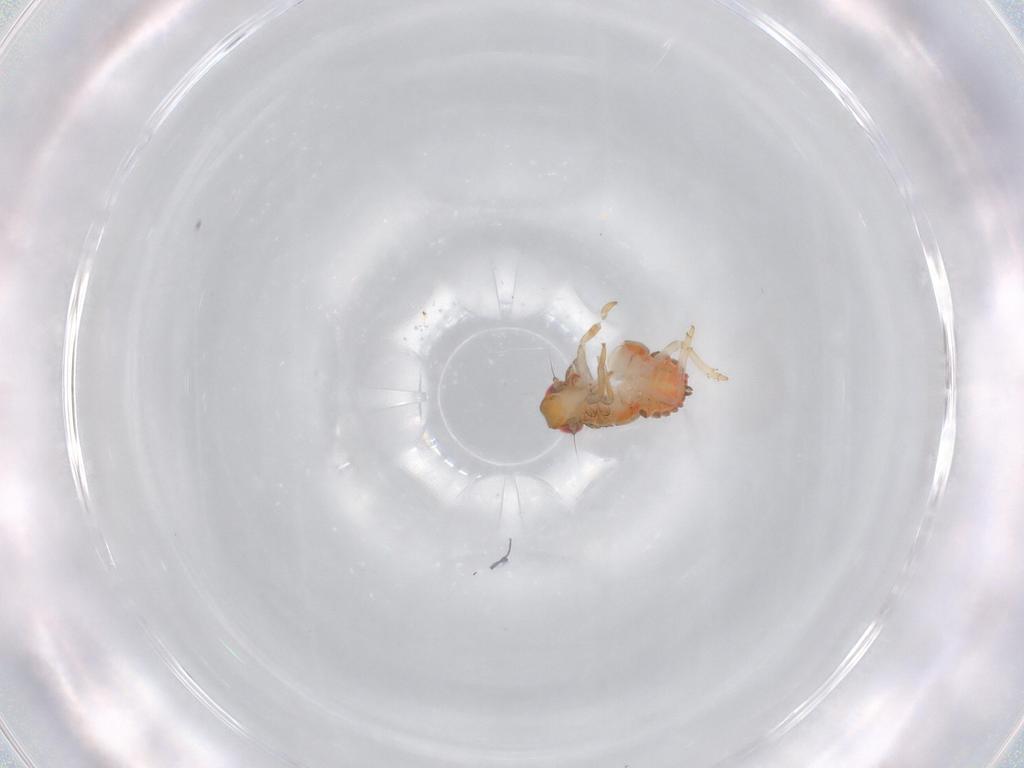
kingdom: Animalia
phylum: Arthropoda
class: Insecta
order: Hemiptera
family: Issidae
